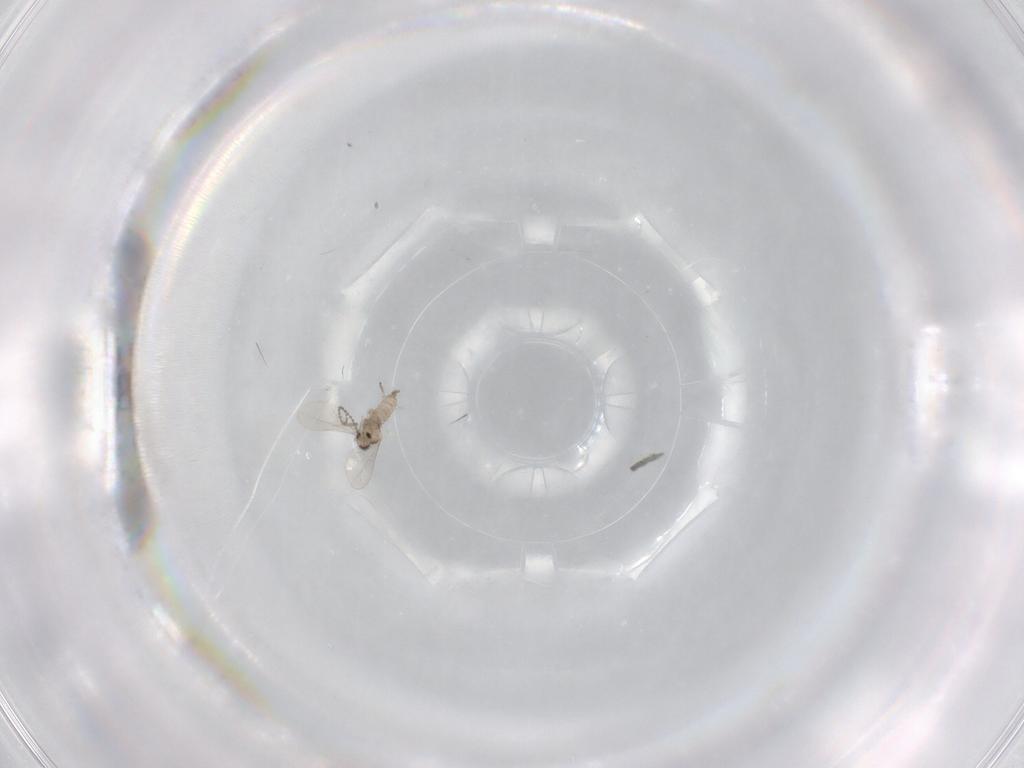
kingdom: Animalia
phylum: Arthropoda
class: Insecta
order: Diptera
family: Cecidomyiidae
